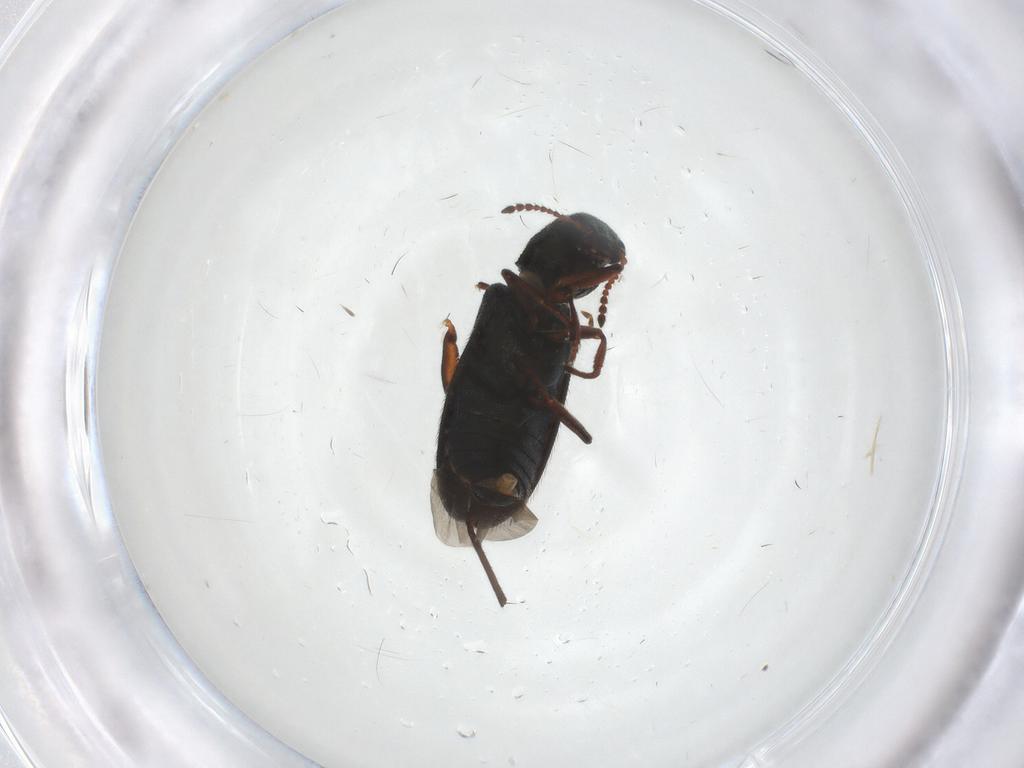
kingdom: Animalia
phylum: Arthropoda
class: Insecta
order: Coleoptera
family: Melyridae
